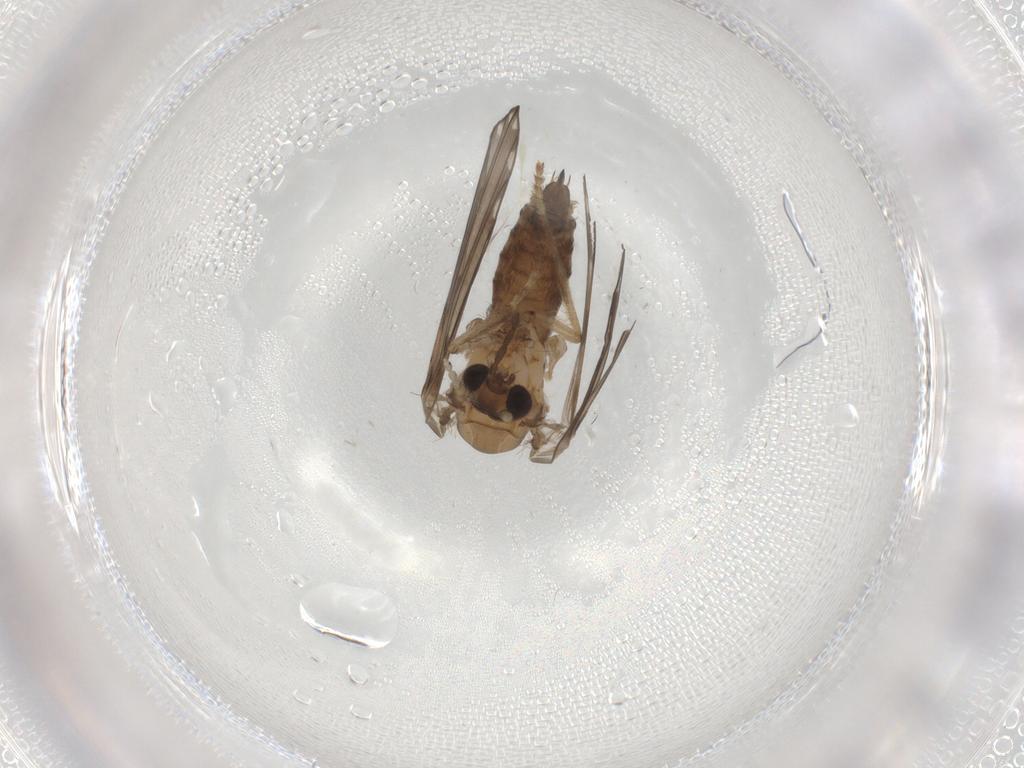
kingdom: Animalia
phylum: Arthropoda
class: Insecta
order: Diptera
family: Psychodidae
